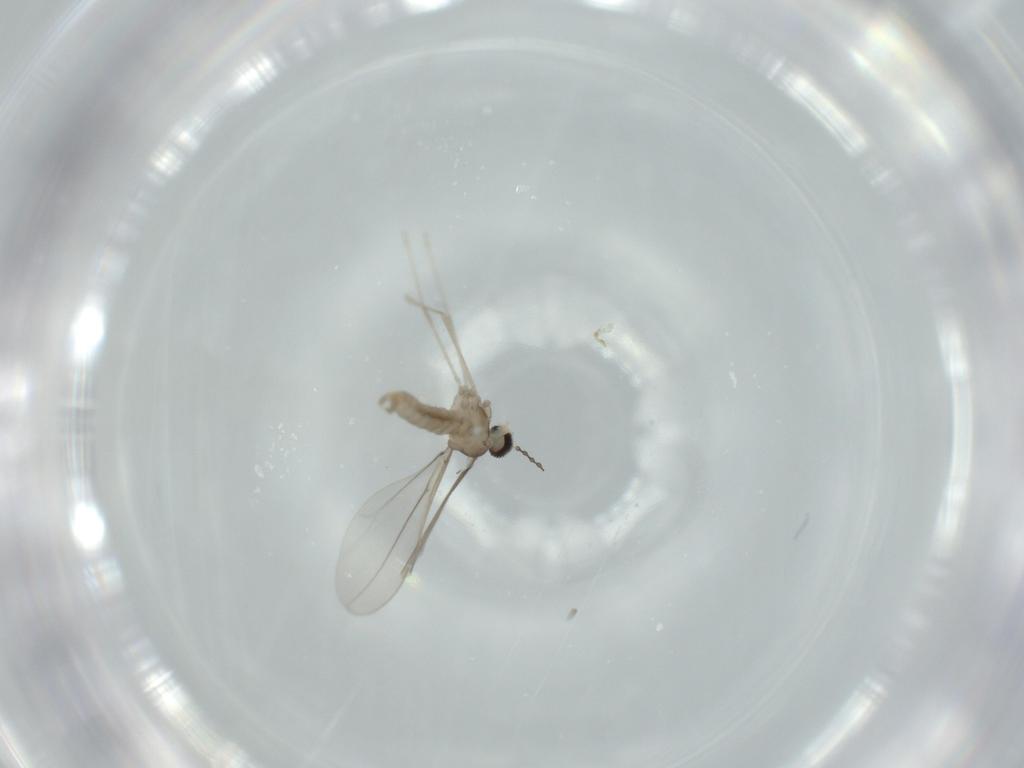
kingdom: Animalia
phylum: Arthropoda
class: Insecta
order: Diptera
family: Cecidomyiidae
